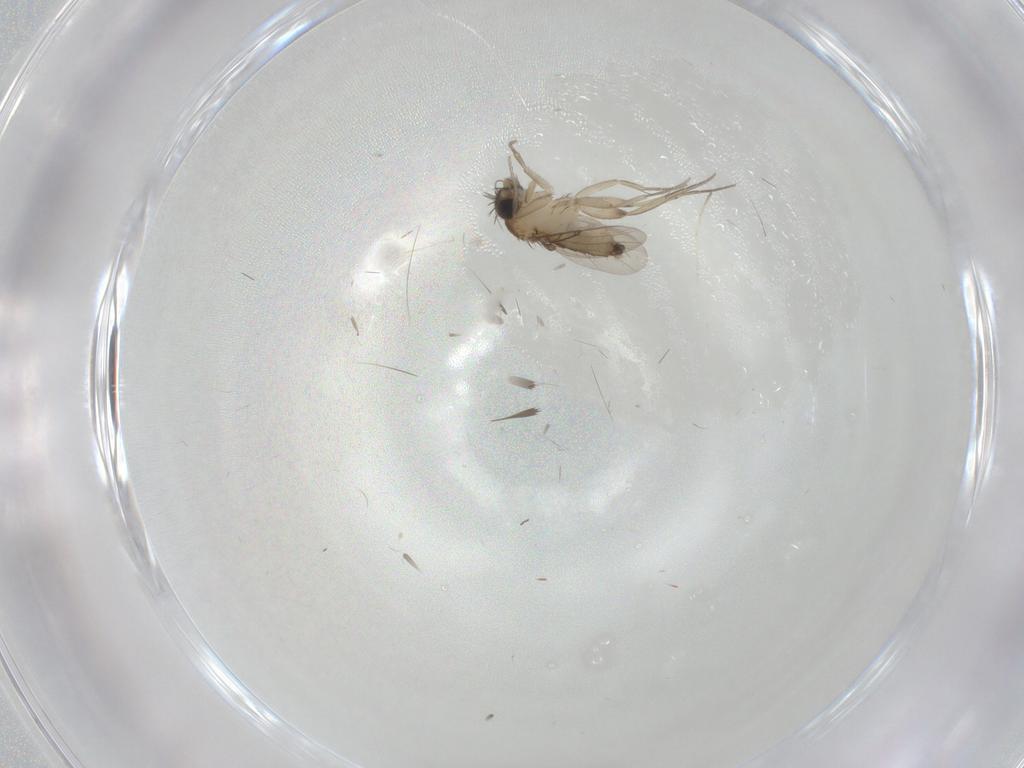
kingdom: Animalia
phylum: Arthropoda
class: Insecta
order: Diptera
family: Phoridae
